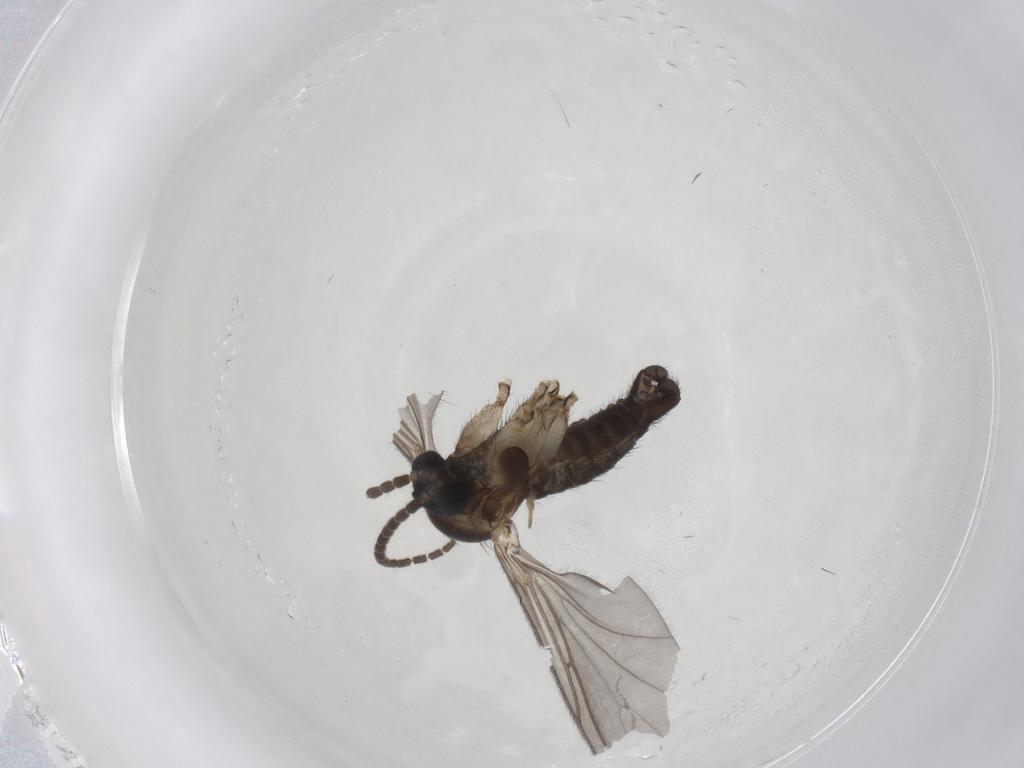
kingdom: Animalia
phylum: Arthropoda
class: Insecta
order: Diptera
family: Sciaridae
